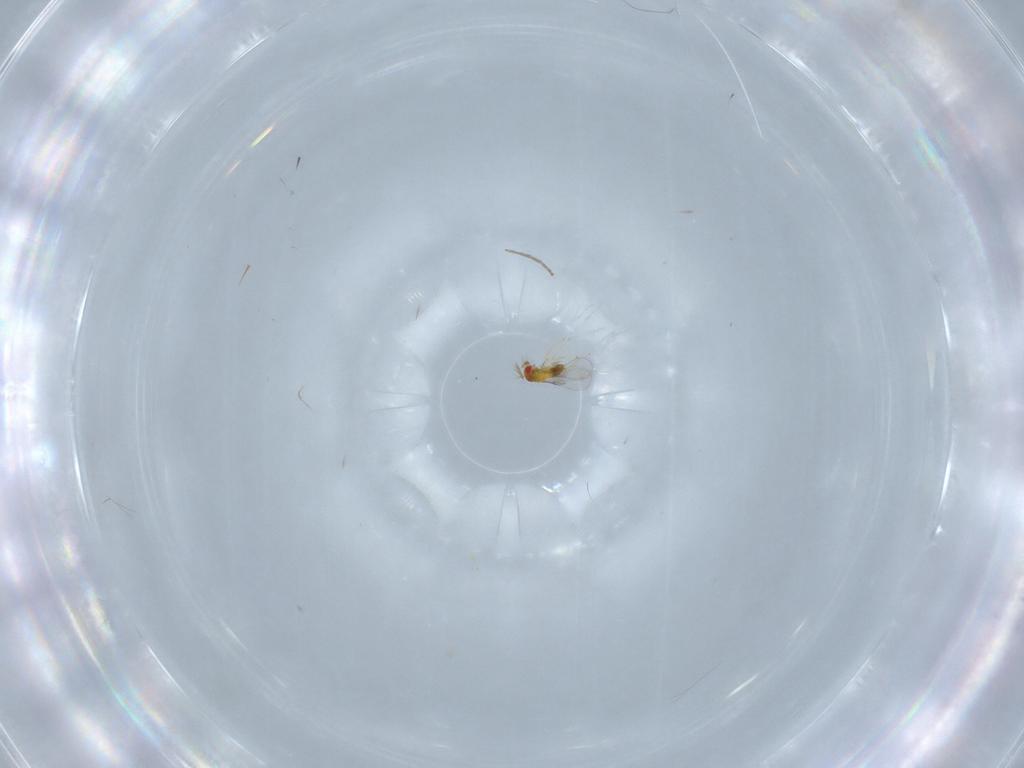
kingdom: Animalia
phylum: Arthropoda
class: Insecta
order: Hymenoptera
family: Trichogrammatidae
